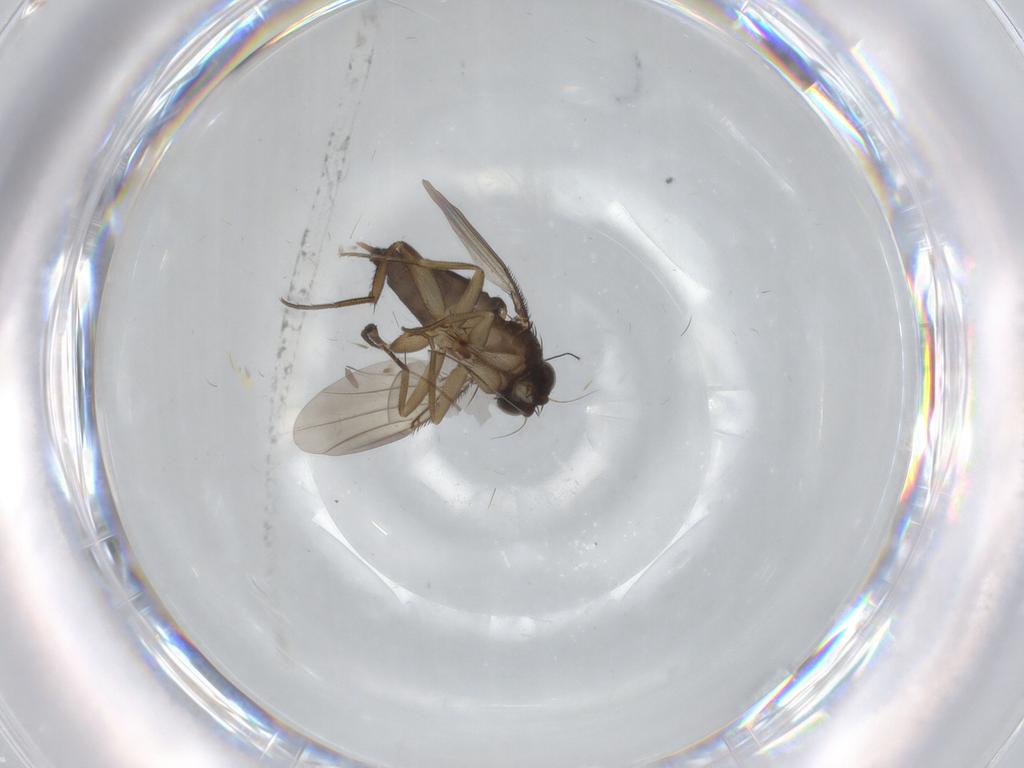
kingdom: Animalia
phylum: Arthropoda
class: Insecta
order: Diptera
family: Phoridae
